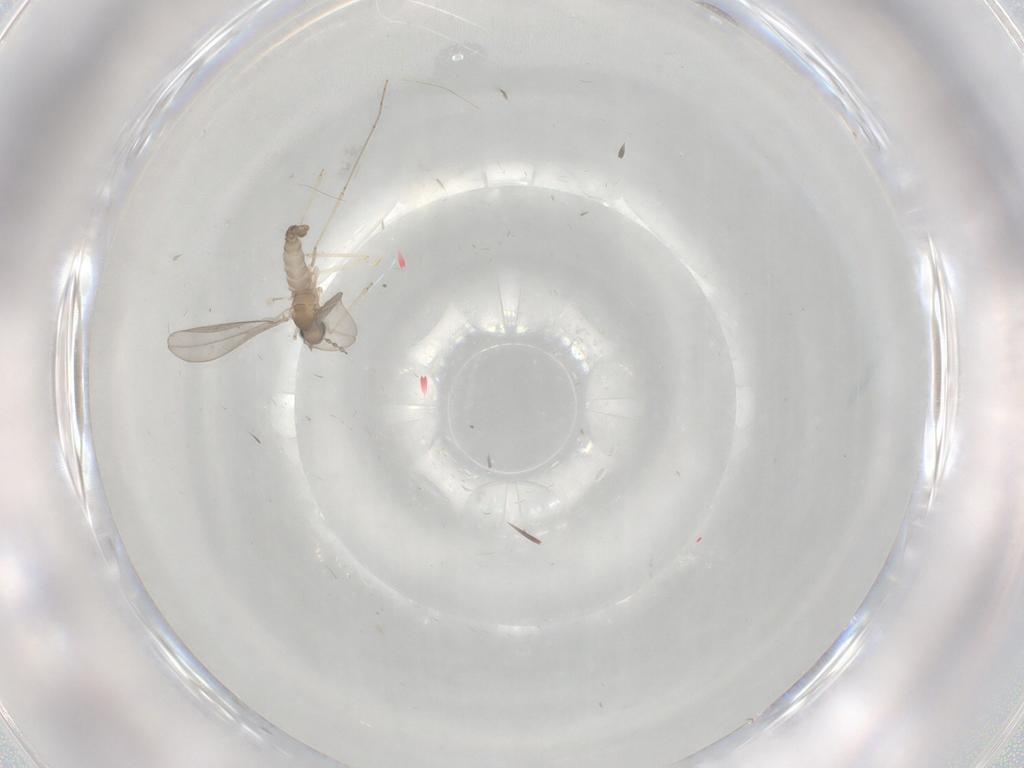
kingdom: Animalia
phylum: Arthropoda
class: Insecta
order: Diptera
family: Cecidomyiidae
